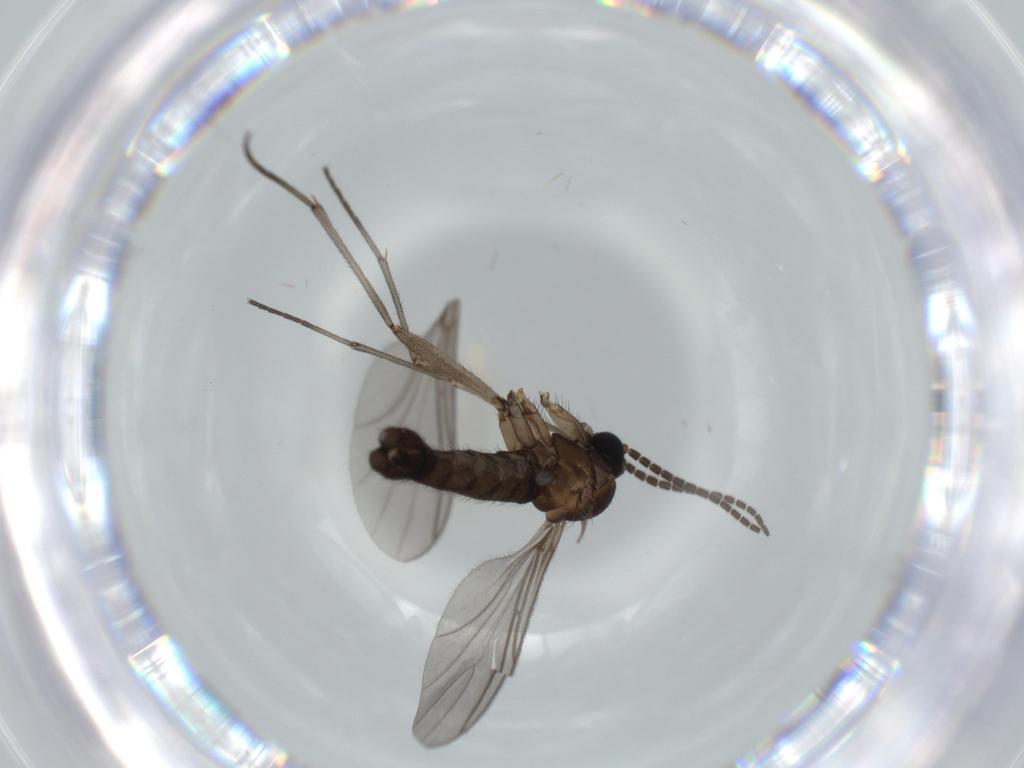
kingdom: Animalia
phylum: Arthropoda
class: Insecta
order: Diptera
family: Sciaridae
